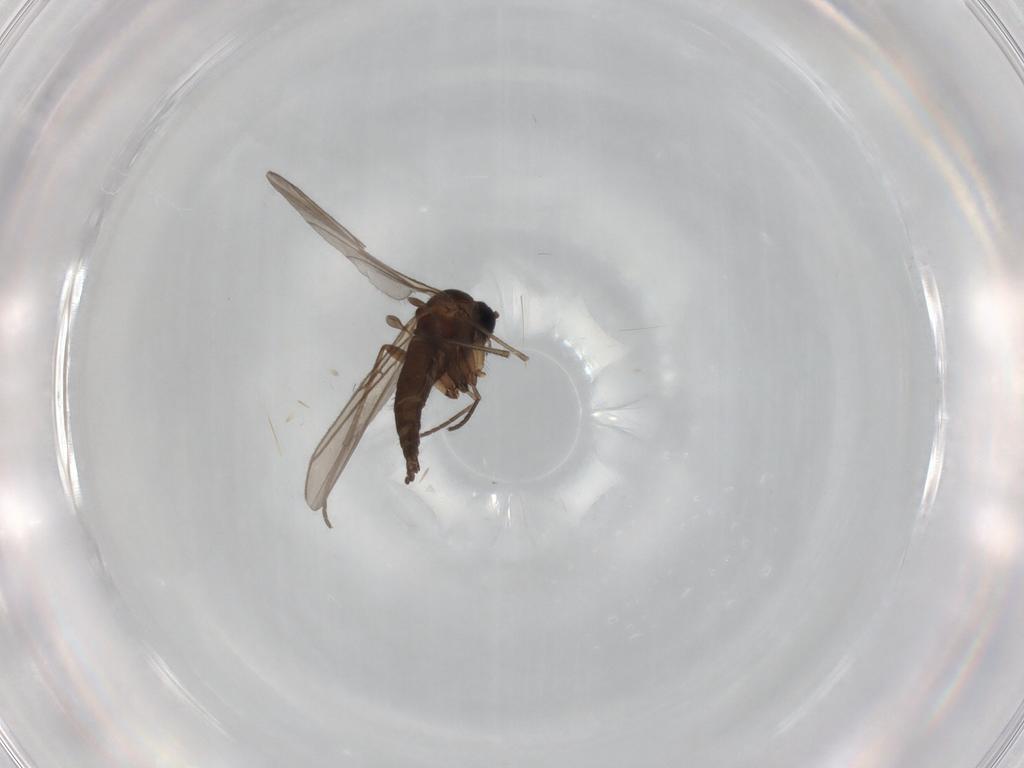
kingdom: Animalia
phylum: Arthropoda
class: Insecta
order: Diptera
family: Sciaridae
